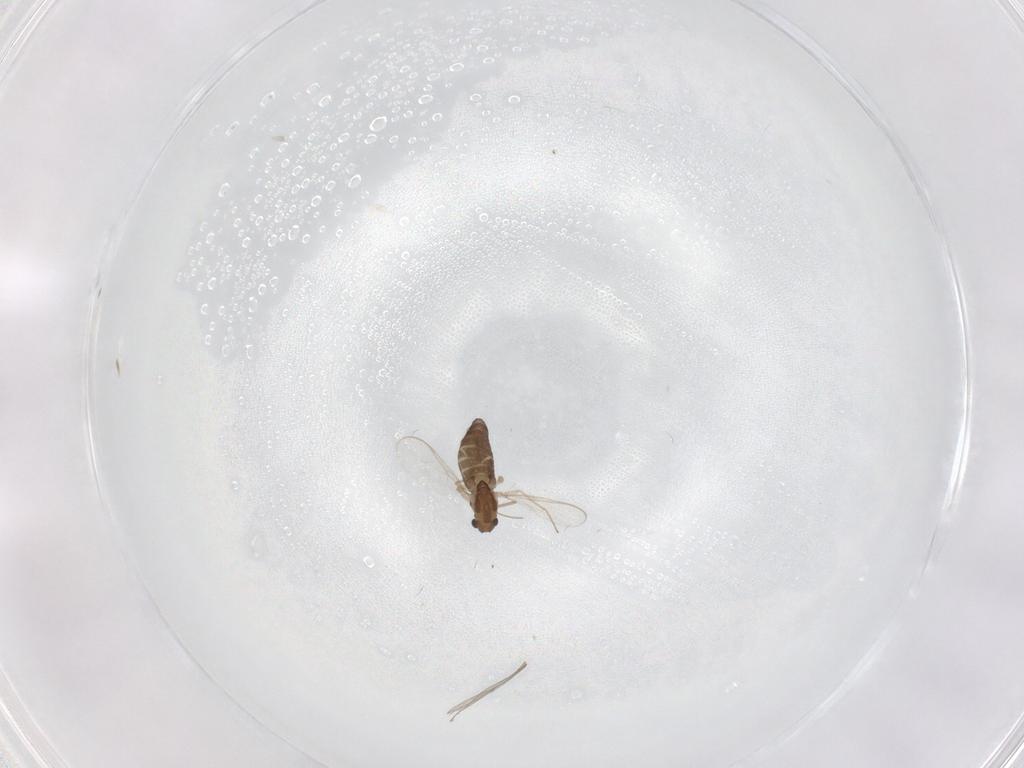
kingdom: Animalia
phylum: Arthropoda
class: Insecta
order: Diptera
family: Chironomidae
